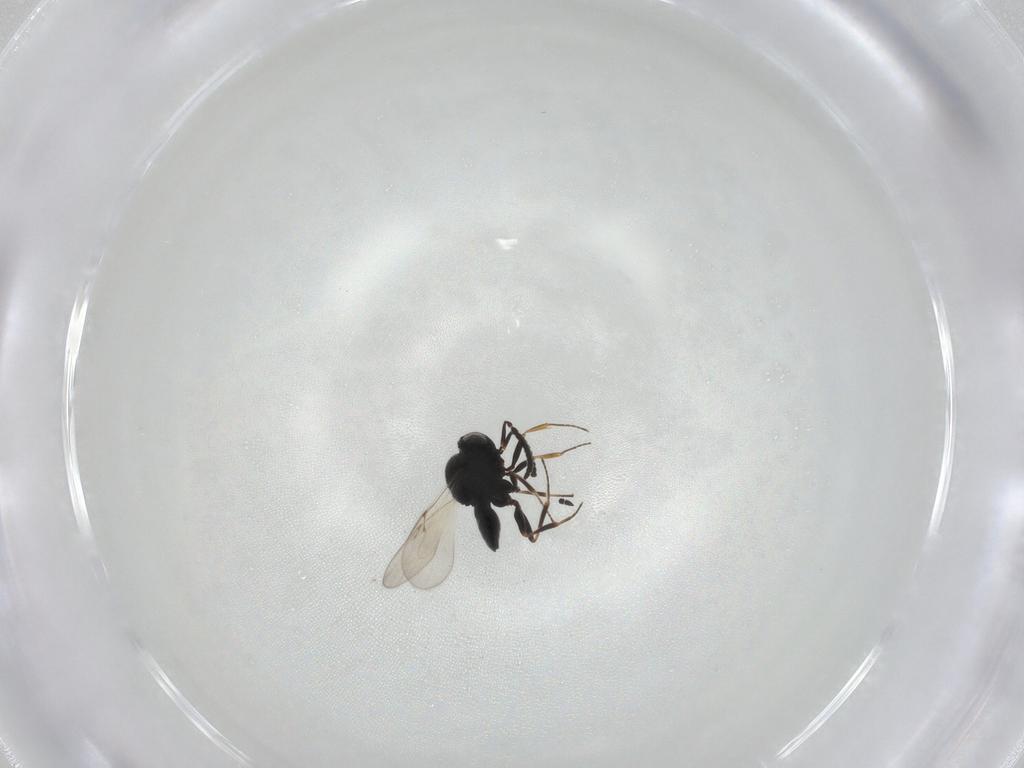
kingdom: Animalia
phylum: Arthropoda
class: Insecta
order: Hymenoptera
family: Scelionidae
